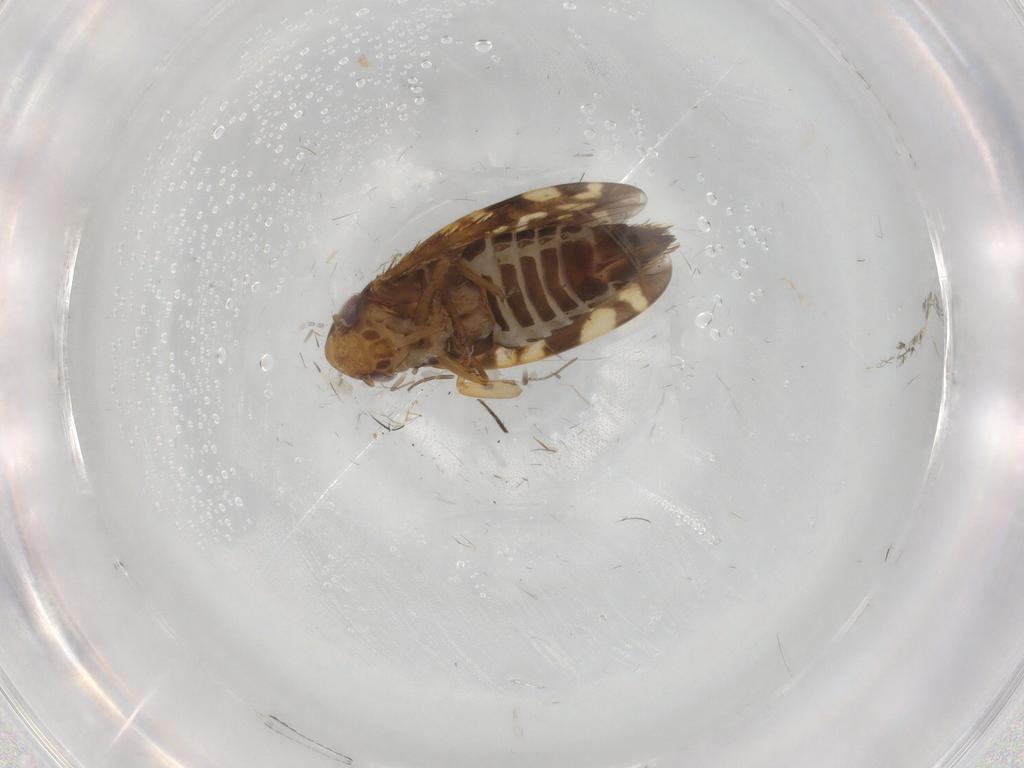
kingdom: Animalia
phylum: Arthropoda
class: Insecta
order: Hemiptera
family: Cicadellidae
